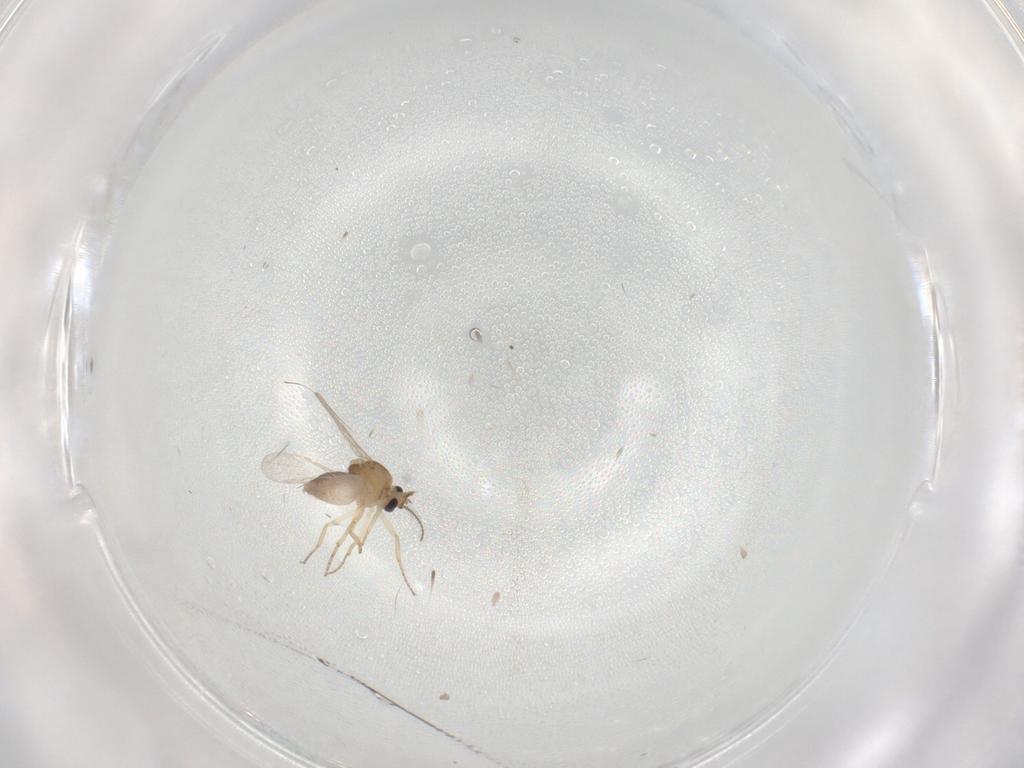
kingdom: Animalia
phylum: Arthropoda
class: Insecta
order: Diptera
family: Ceratopogonidae
